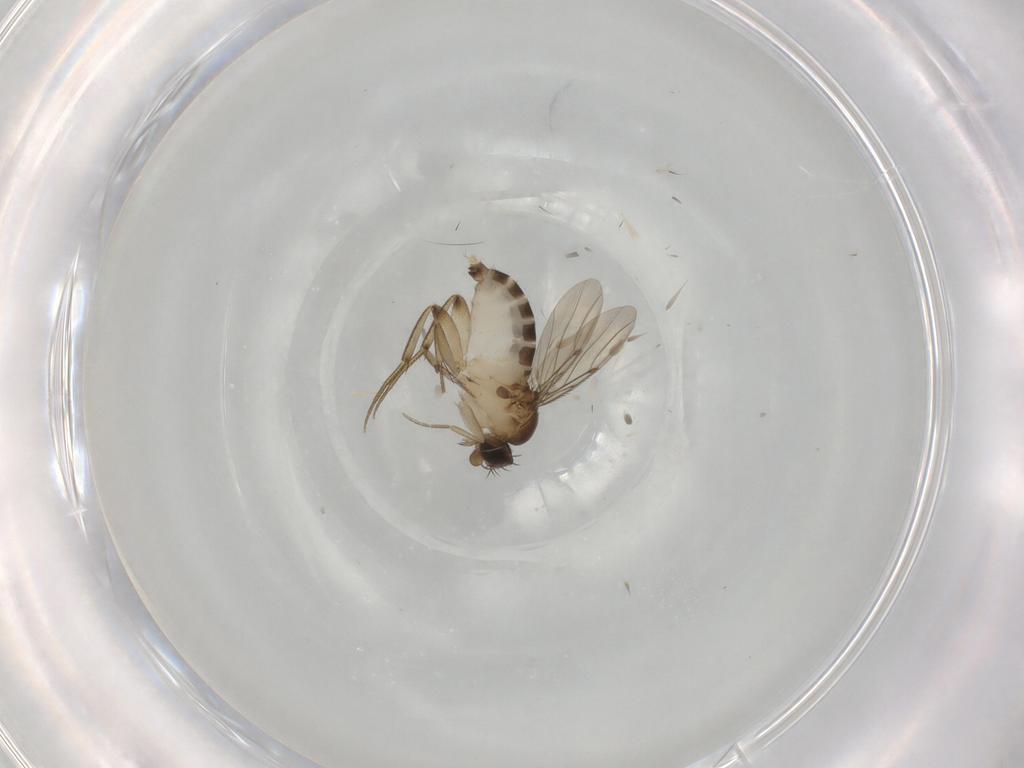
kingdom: Animalia
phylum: Arthropoda
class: Insecta
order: Diptera
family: Phoridae
